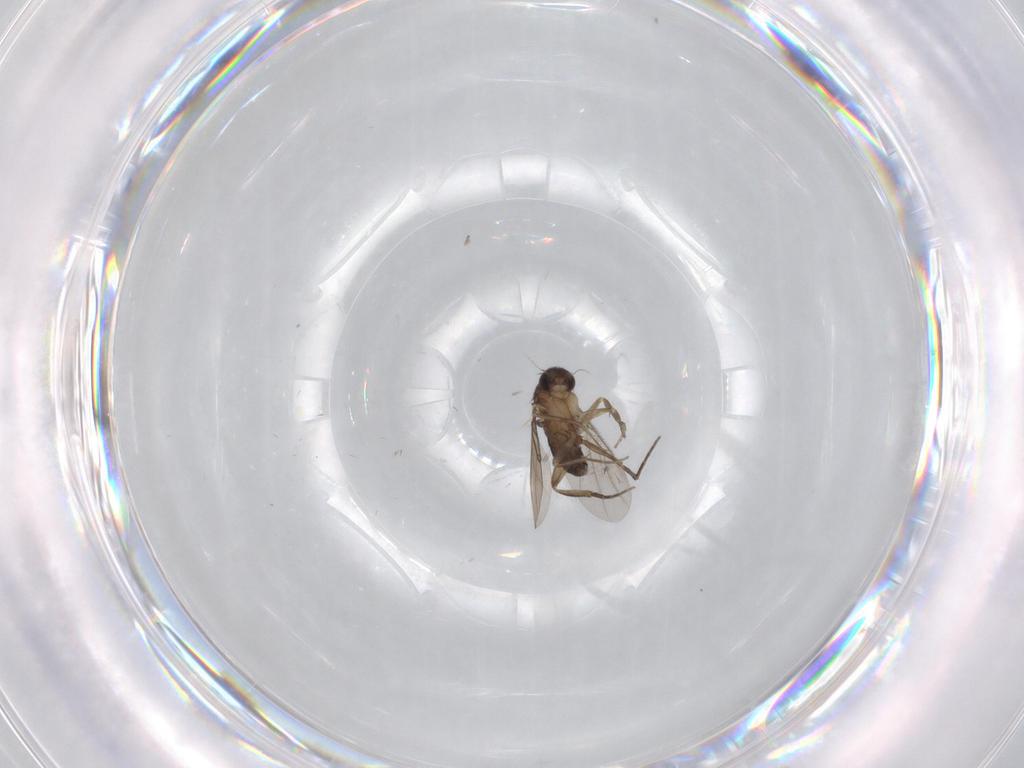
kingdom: Animalia
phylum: Arthropoda
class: Insecta
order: Diptera
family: Phoridae
